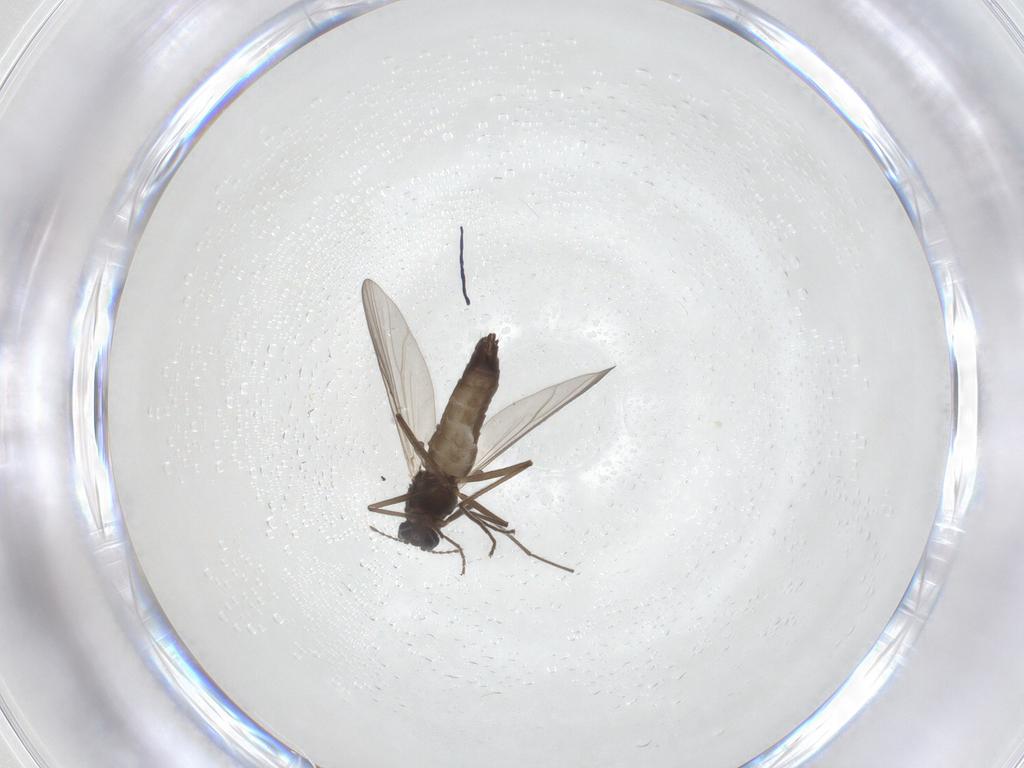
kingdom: Animalia
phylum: Arthropoda
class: Insecta
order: Diptera
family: Chironomidae
